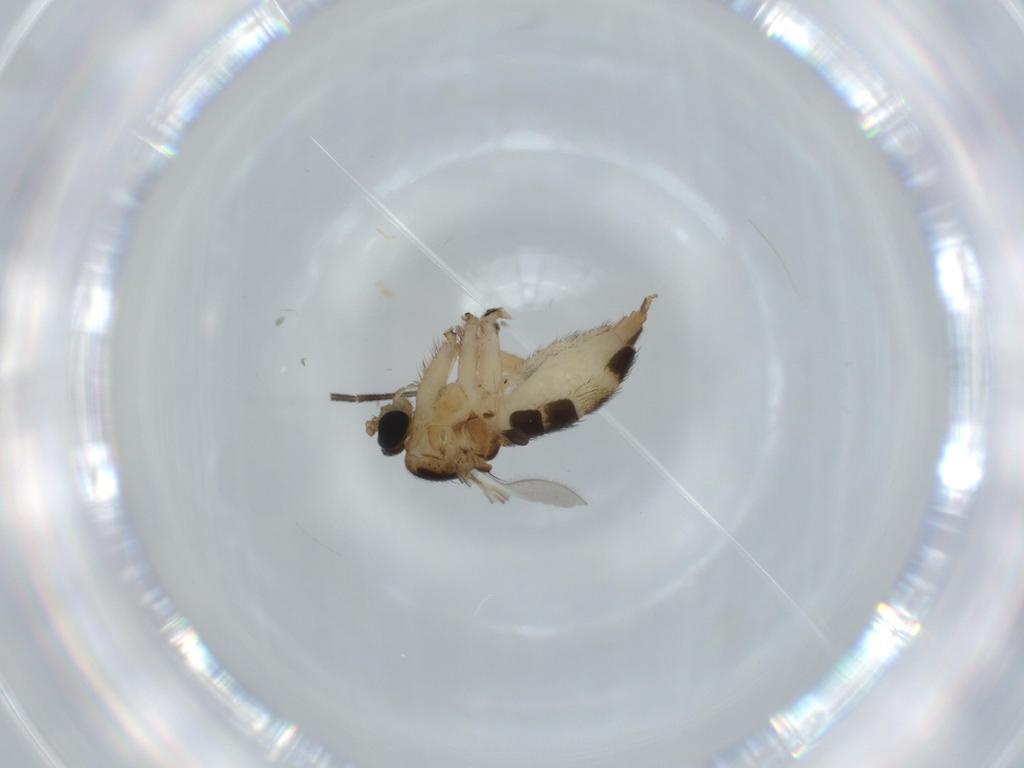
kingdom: Animalia
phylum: Arthropoda
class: Insecta
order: Diptera
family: Sciaridae
